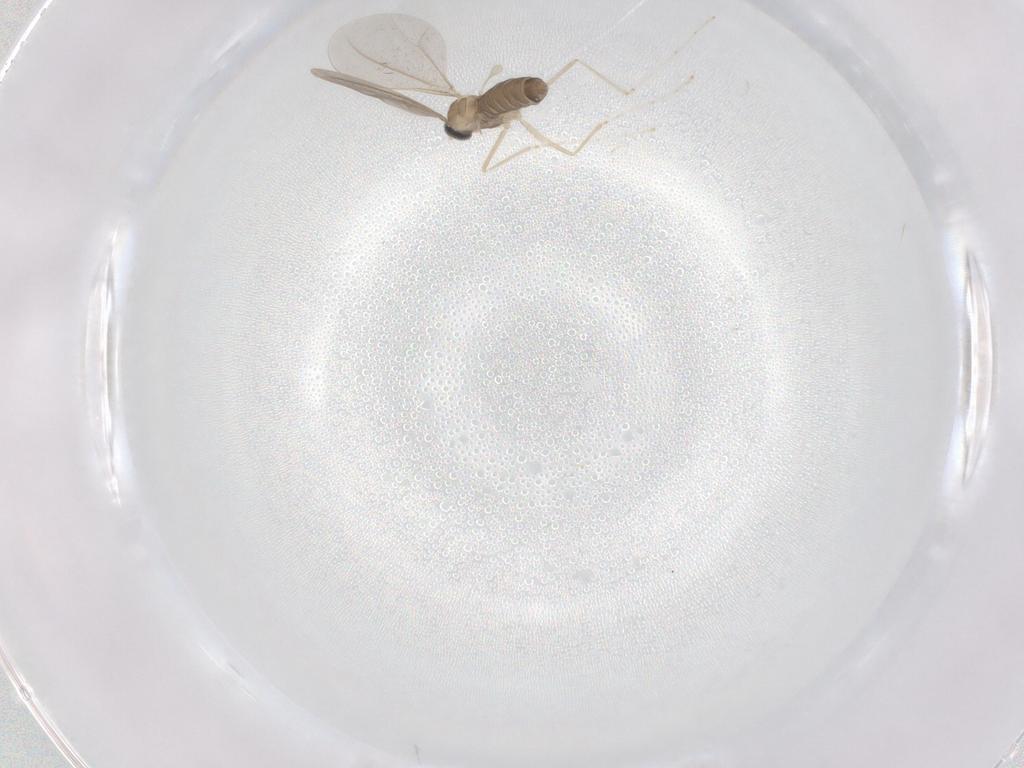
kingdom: Animalia
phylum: Arthropoda
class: Insecta
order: Diptera
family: Cecidomyiidae
